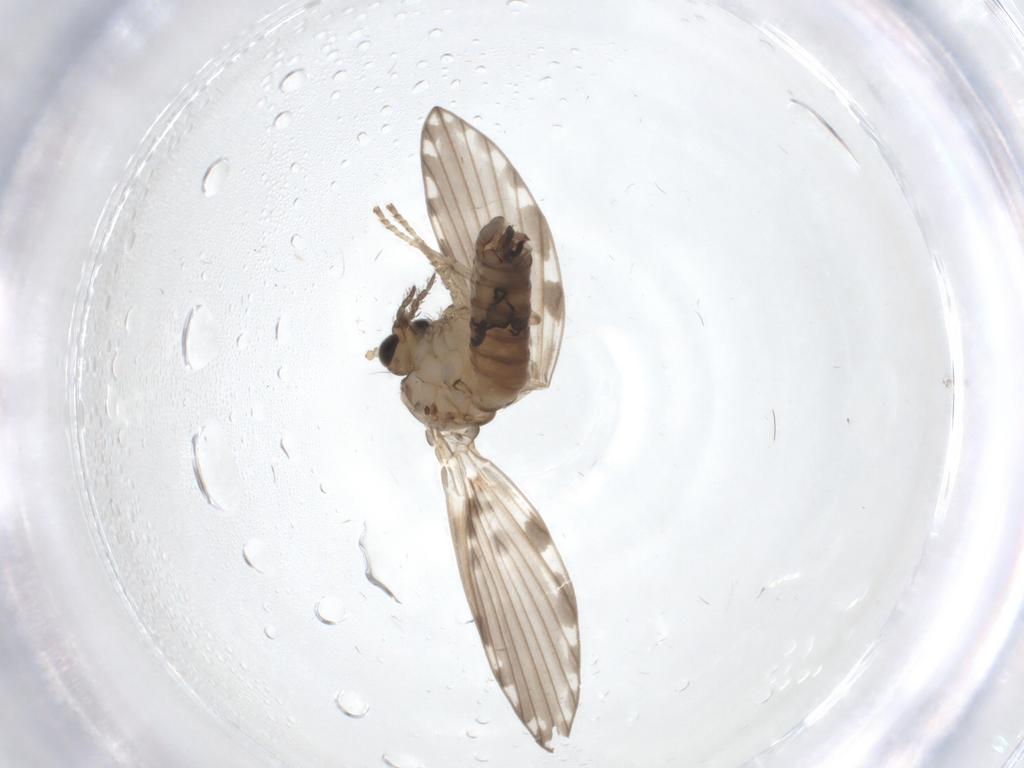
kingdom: Animalia
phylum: Arthropoda
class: Insecta
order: Diptera
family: Psychodidae
